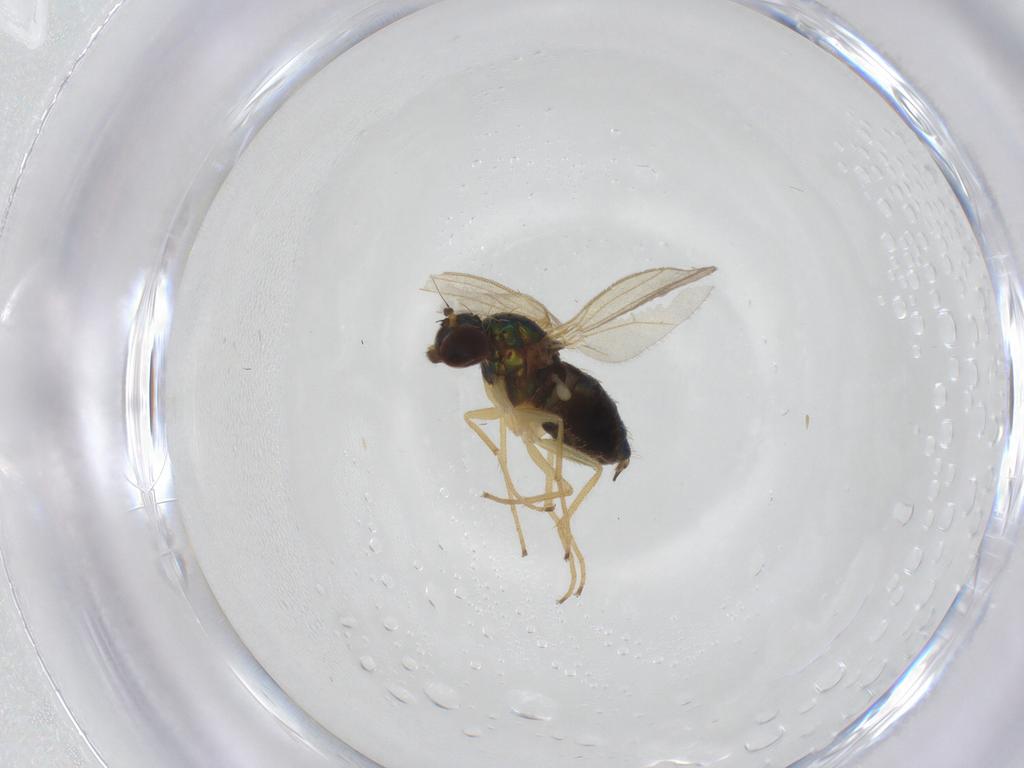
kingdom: Animalia
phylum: Arthropoda
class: Insecta
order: Diptera
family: Dolichopodidae
